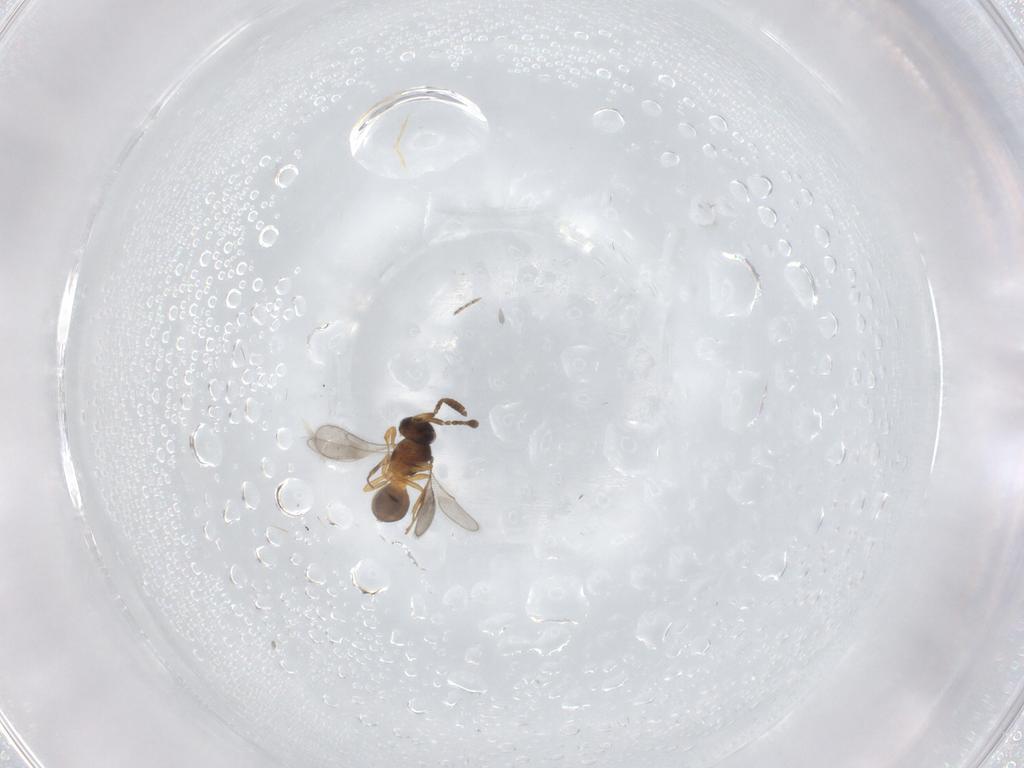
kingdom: Animalia
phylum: Arthropoda
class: Insecta
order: Hymenoptera
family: Scelionidae
